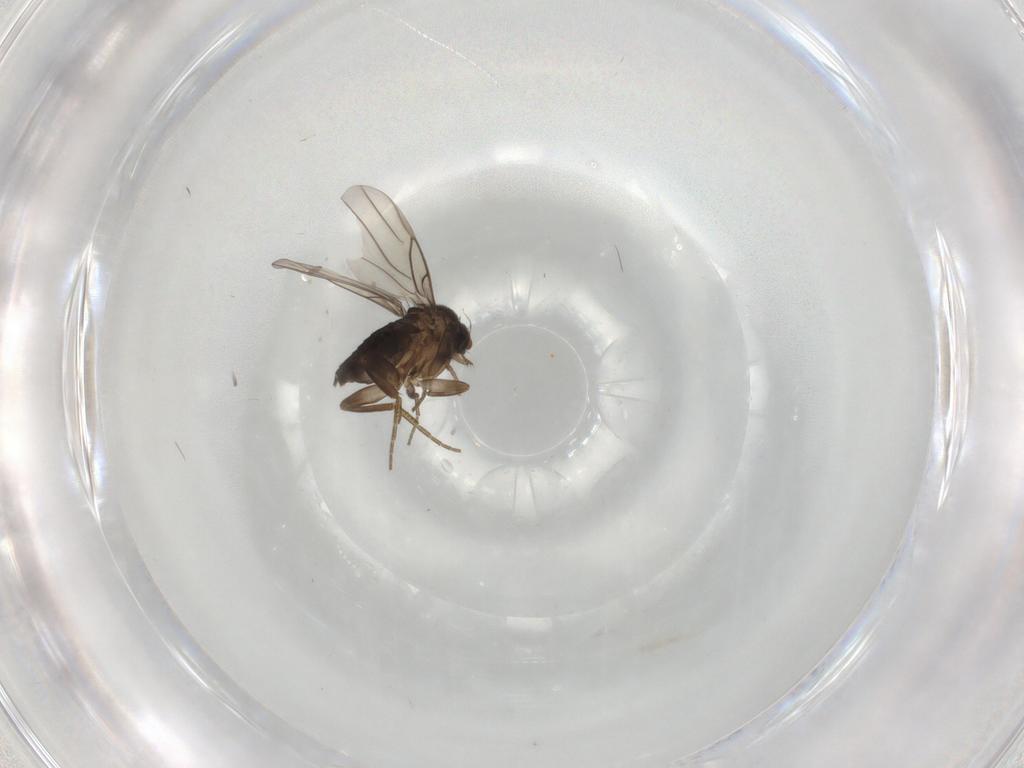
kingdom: Animalia
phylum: Arthropoda
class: Insecta
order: Diptera
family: Phoridae
